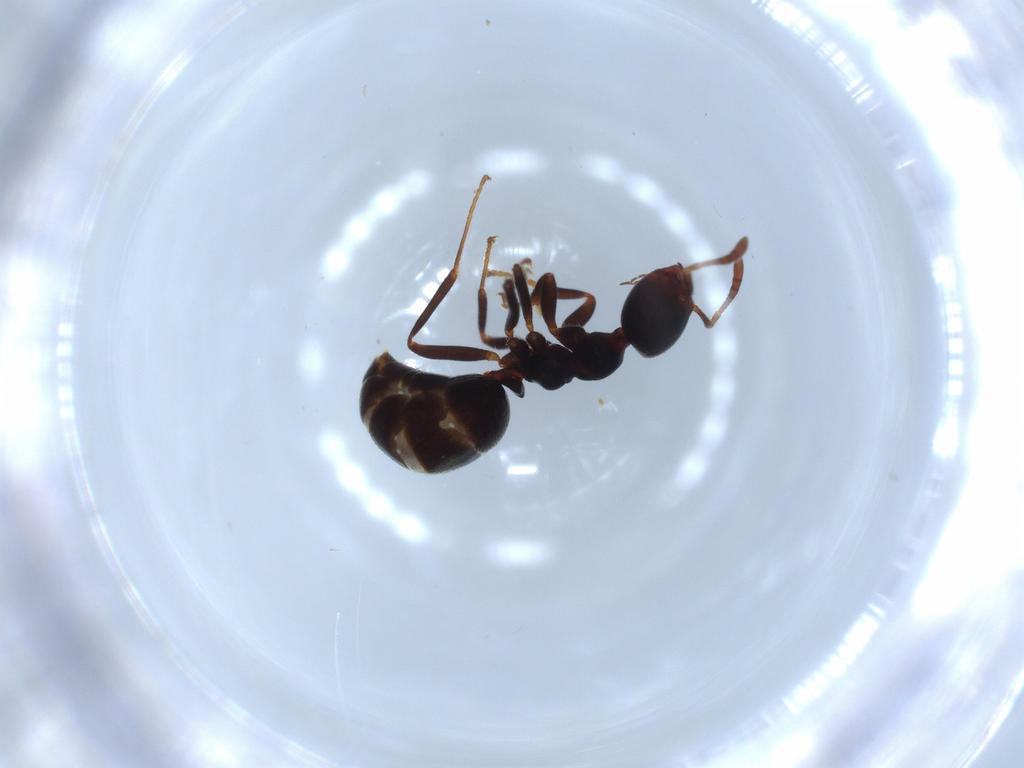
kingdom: Animalia
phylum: Arthropoda
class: Insecta
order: Hymenoptera
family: Formicidae
